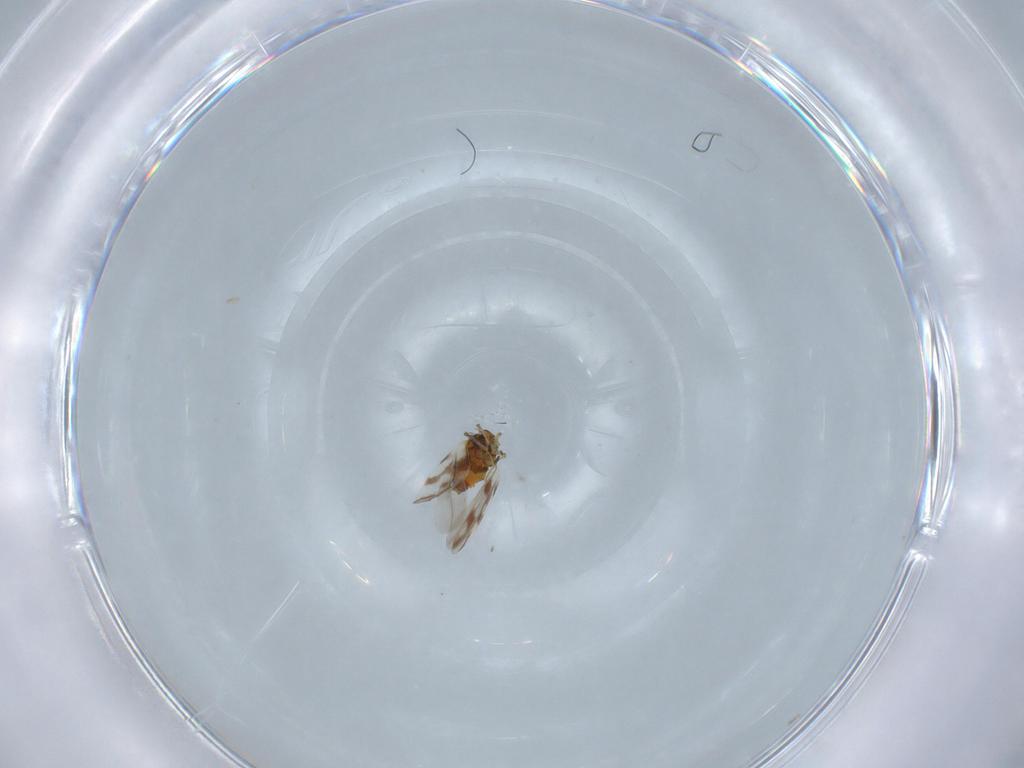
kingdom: Animalia
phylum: Arthropoda
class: Insecta
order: Hemiptera
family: Aleyrodidae
